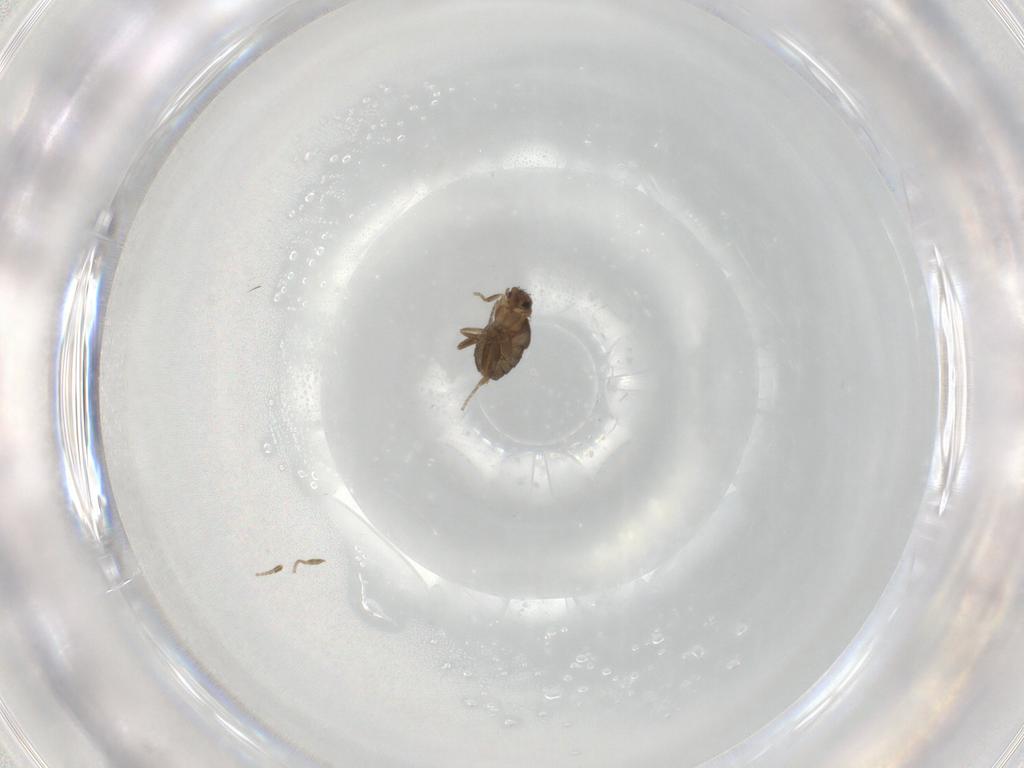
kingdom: Animalia
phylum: Arthropoda
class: Insecta
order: Diptera
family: Phoridae
